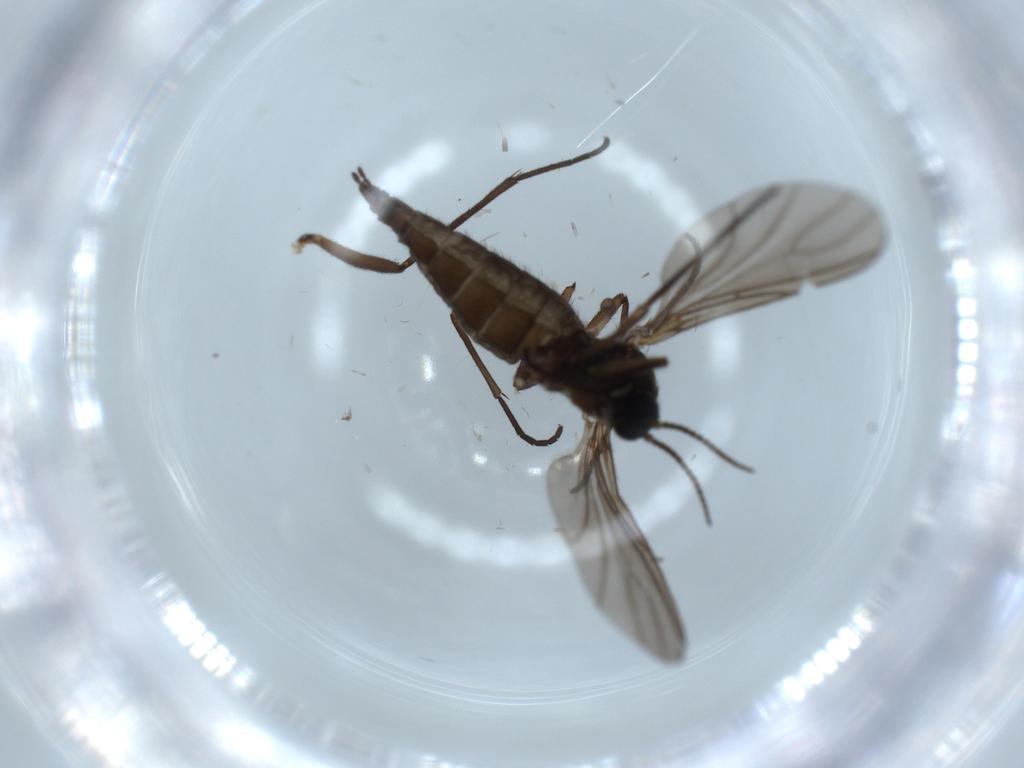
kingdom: Animalia
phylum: Arthropoda
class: Insecta
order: Diptera
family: Sciaridae
